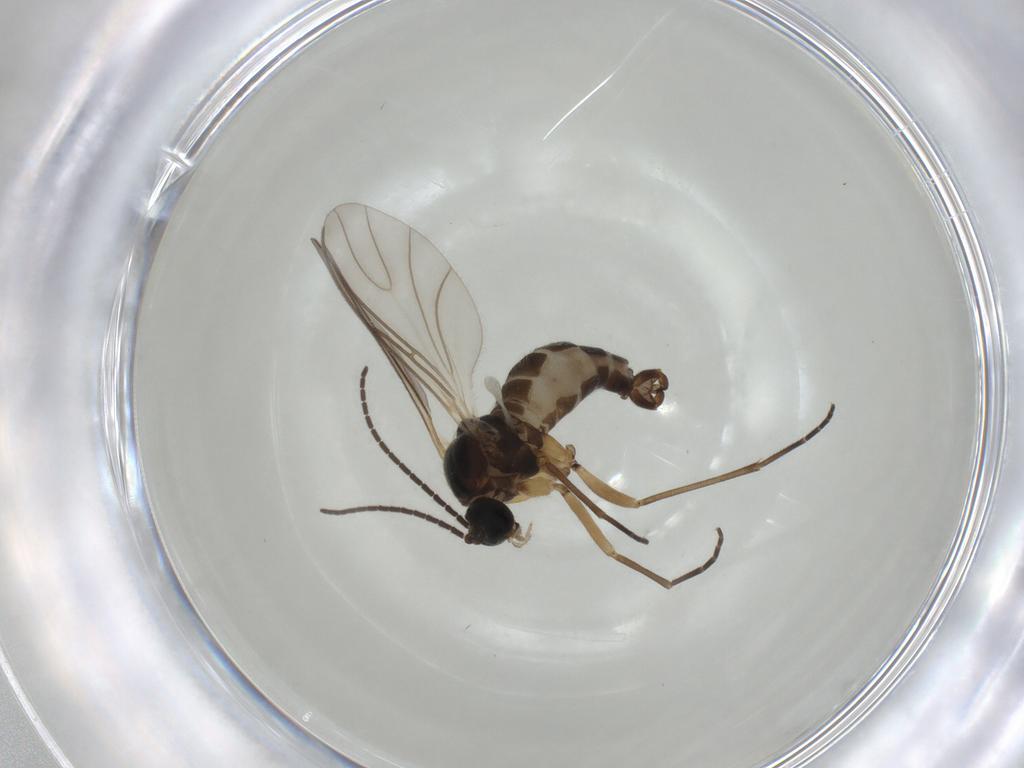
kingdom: Animalia
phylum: Arthropoda
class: Insecta
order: Diptera
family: Sciaridae
